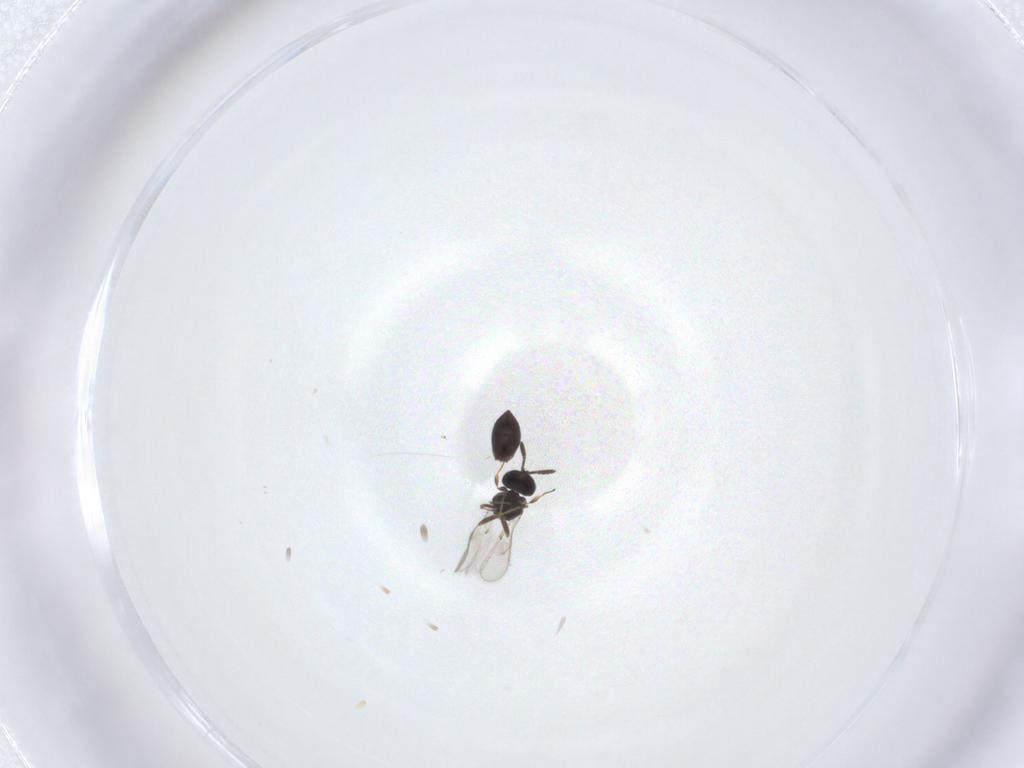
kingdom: Animalia
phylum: Arthropoda
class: Insecta
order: Hymenoptera
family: Scelionidae
